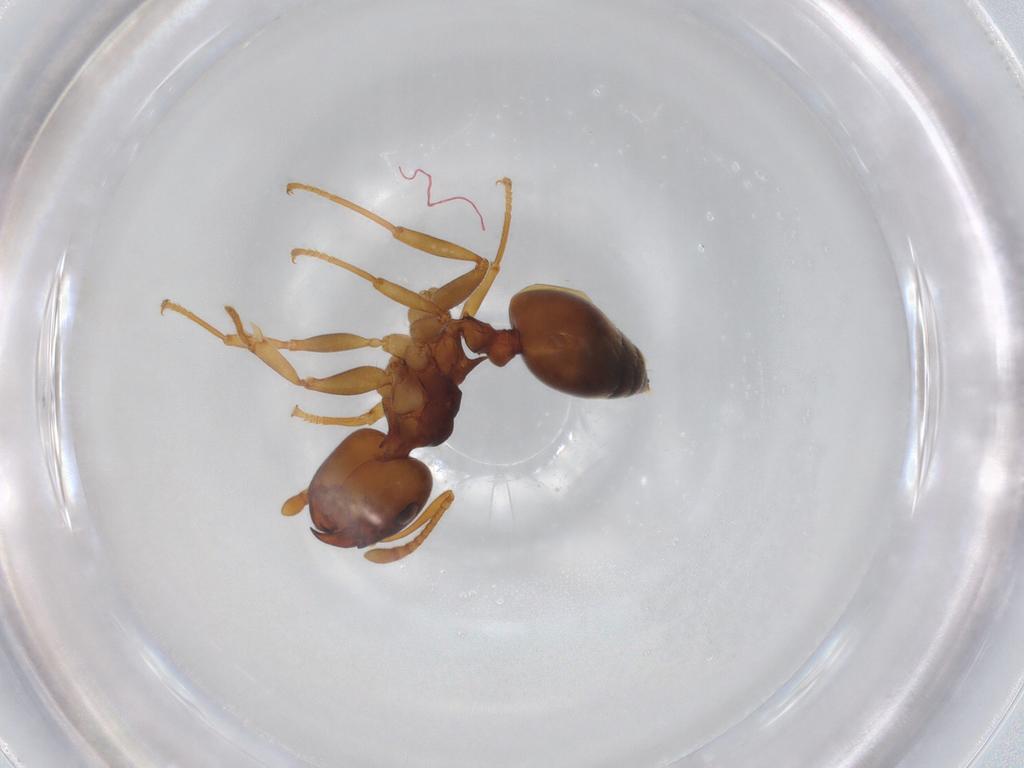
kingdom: Animalia
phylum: Arthropoda
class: Insecta
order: Hymenoptera
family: Formicidae
